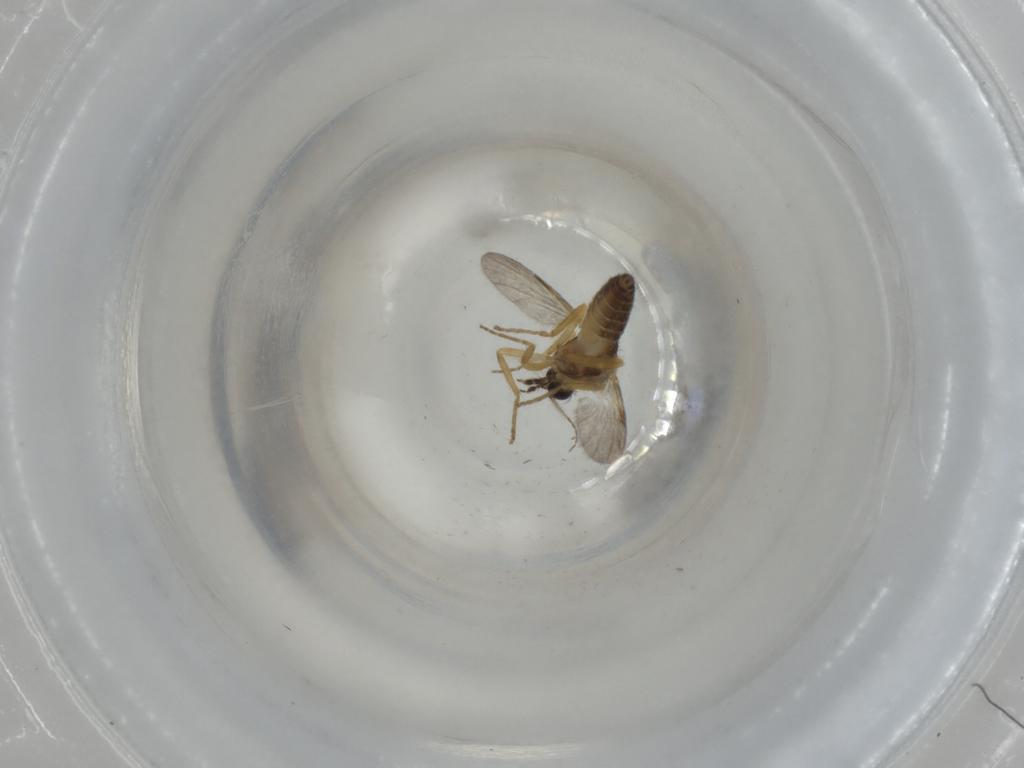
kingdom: Animalia
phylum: Arthropoda
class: Insecta
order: Diptera
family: Ceratopogonidae
